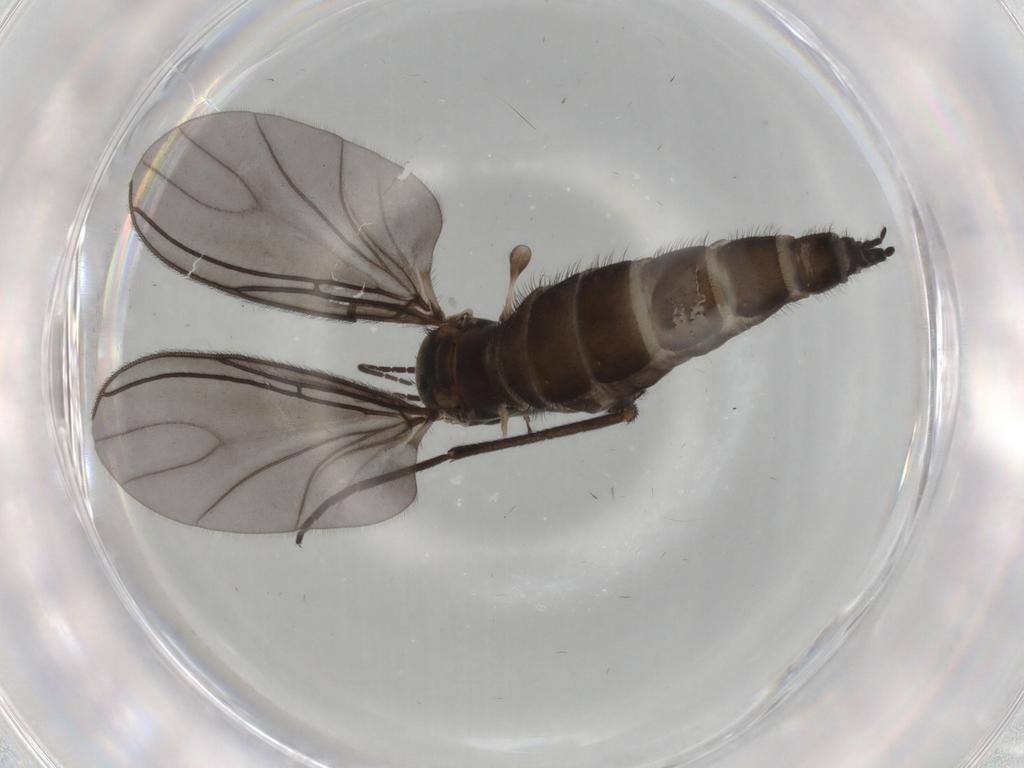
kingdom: Animalia
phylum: Arthropoda
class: Insecta
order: Diptera
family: Sciaridae
